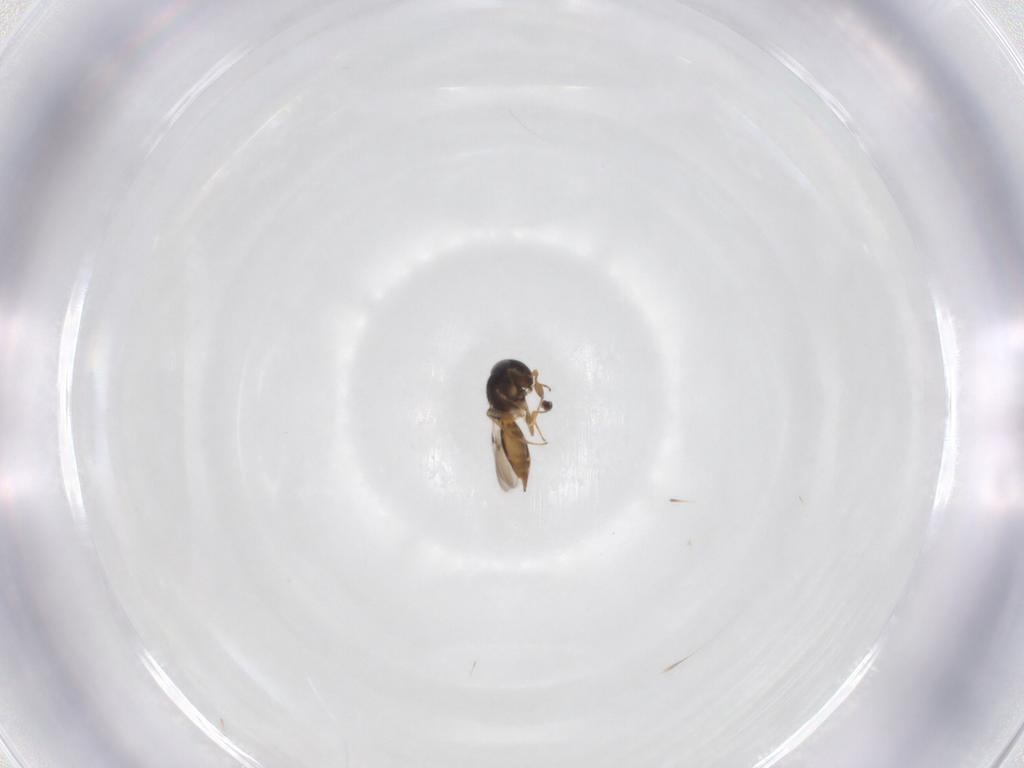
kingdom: Animalia
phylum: Arthropoda
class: Insecta
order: Hymenoptera
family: Scelionidae
